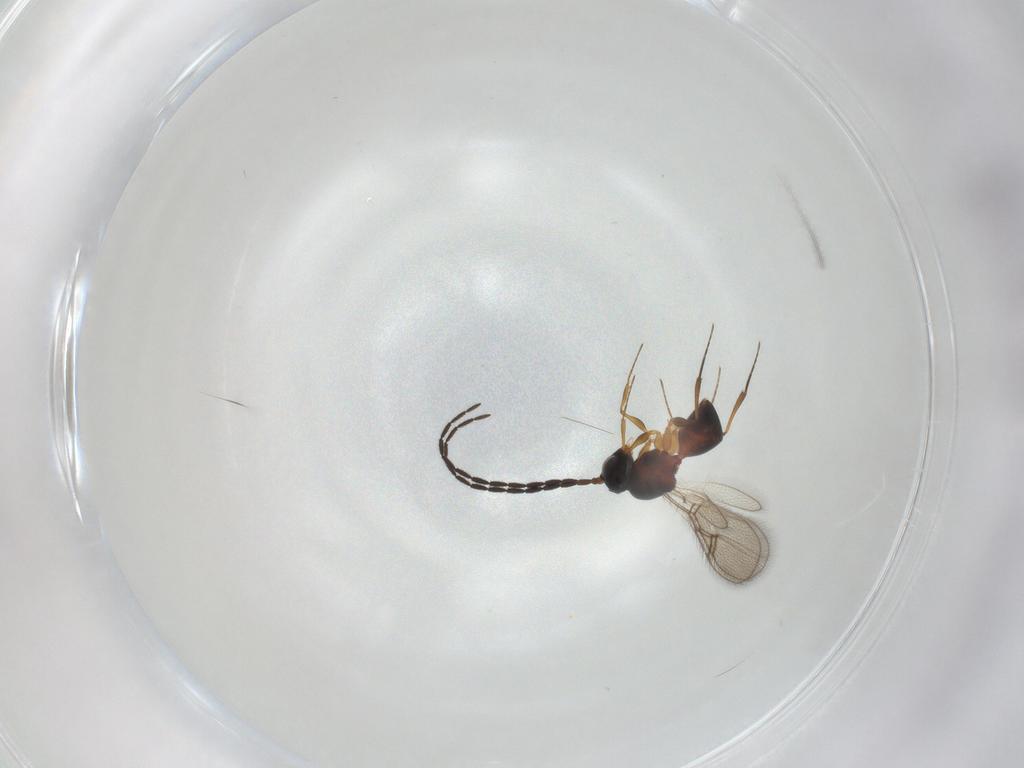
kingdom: Animalia
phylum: Arthropoda
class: Insecta
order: Hymenoptera
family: Figitidae
